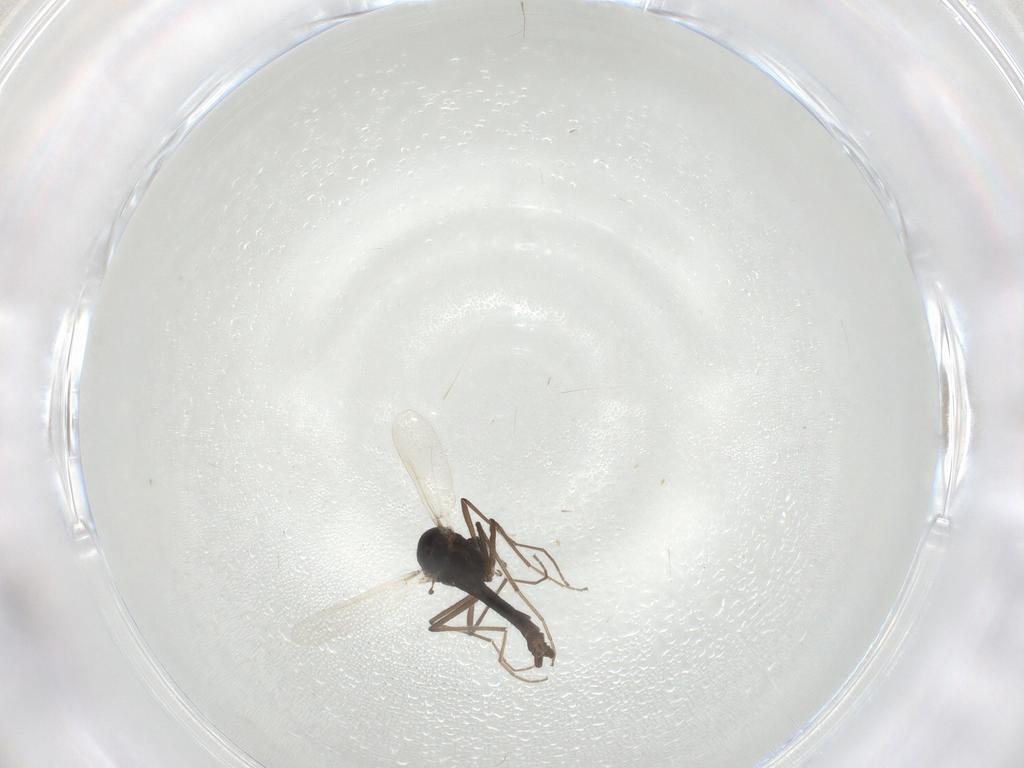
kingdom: Animalia
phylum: Arthropoda
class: Insecta
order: Diptera
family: Chironomidae
